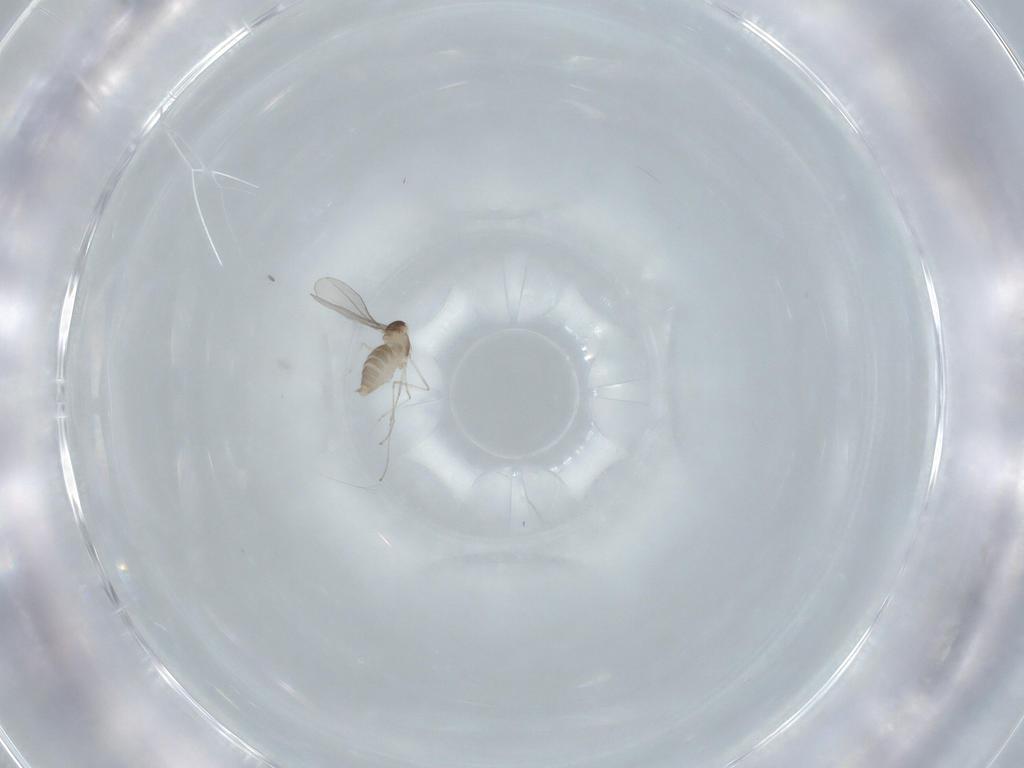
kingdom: Animalia
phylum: Arthropoda
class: Insecta
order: Diptera
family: Cecidomyiidae
